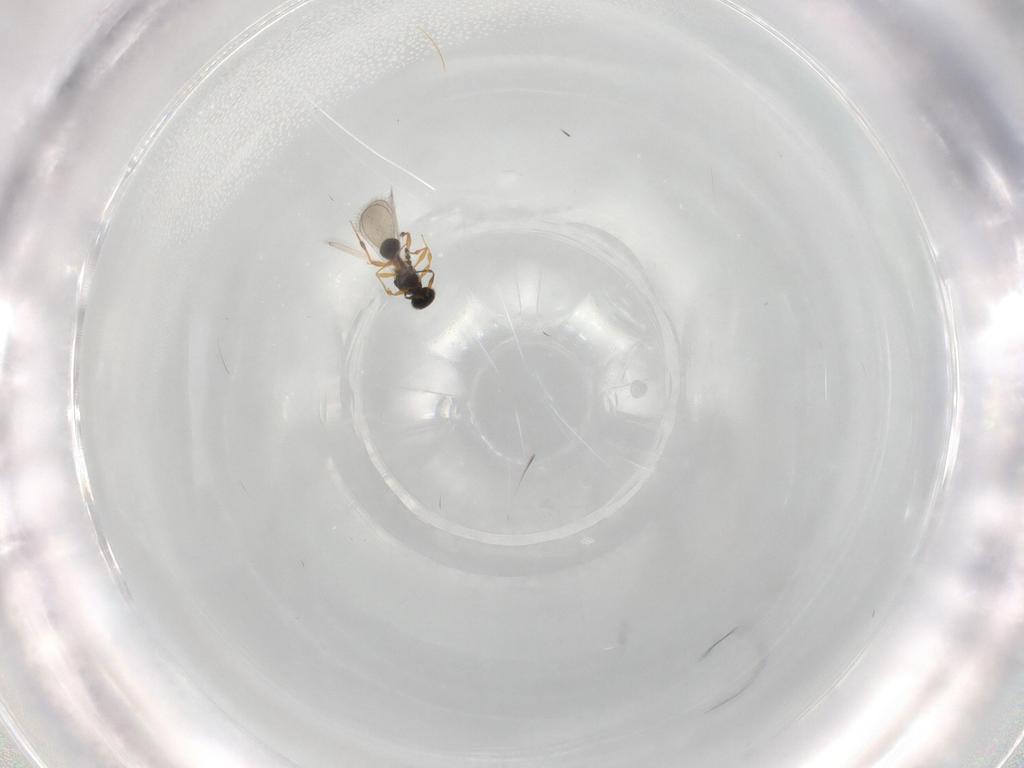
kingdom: Animalia
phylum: Arthropoda
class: Insecta
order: Hymenoptera
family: Platygastridae
